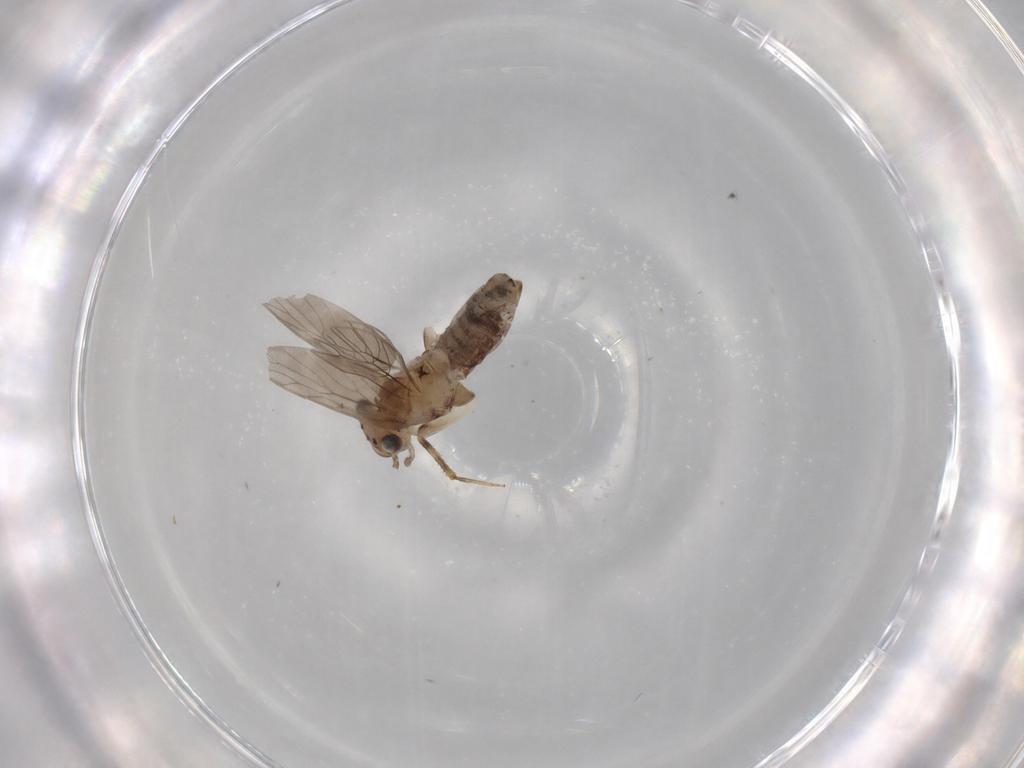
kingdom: Animalia
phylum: Arthropoda
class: Insecta
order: Psocodea
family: Lepidopsocidae
